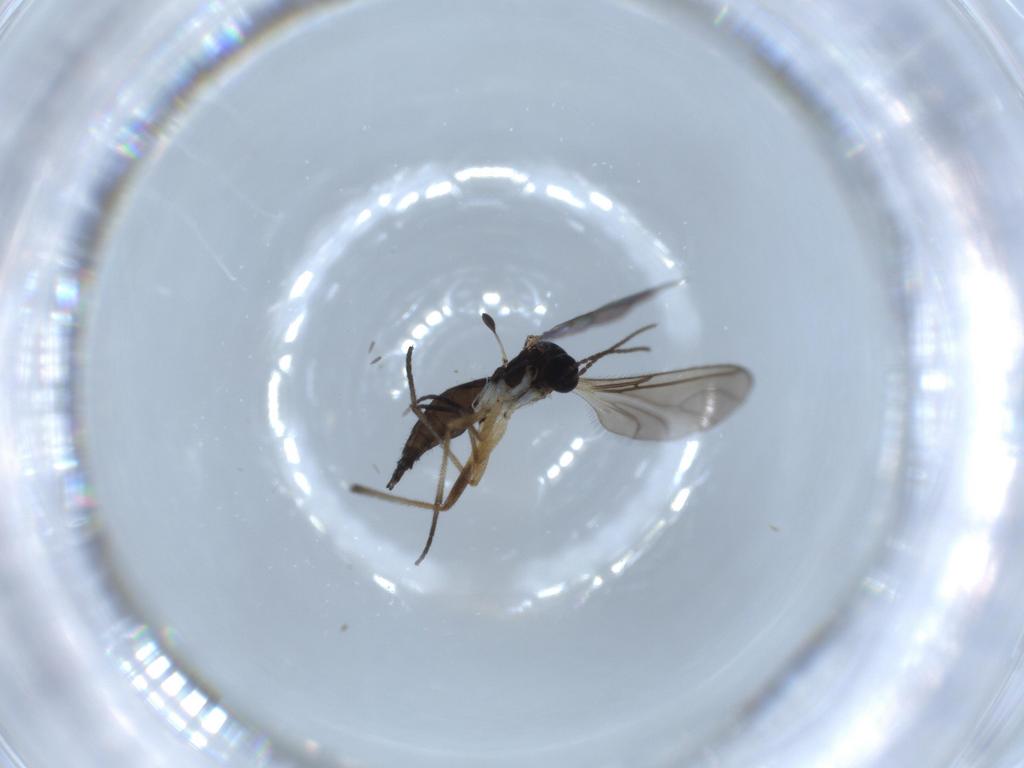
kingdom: Animalia
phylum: Arthropoda
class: Insecta
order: Diptera
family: Sciaridae
